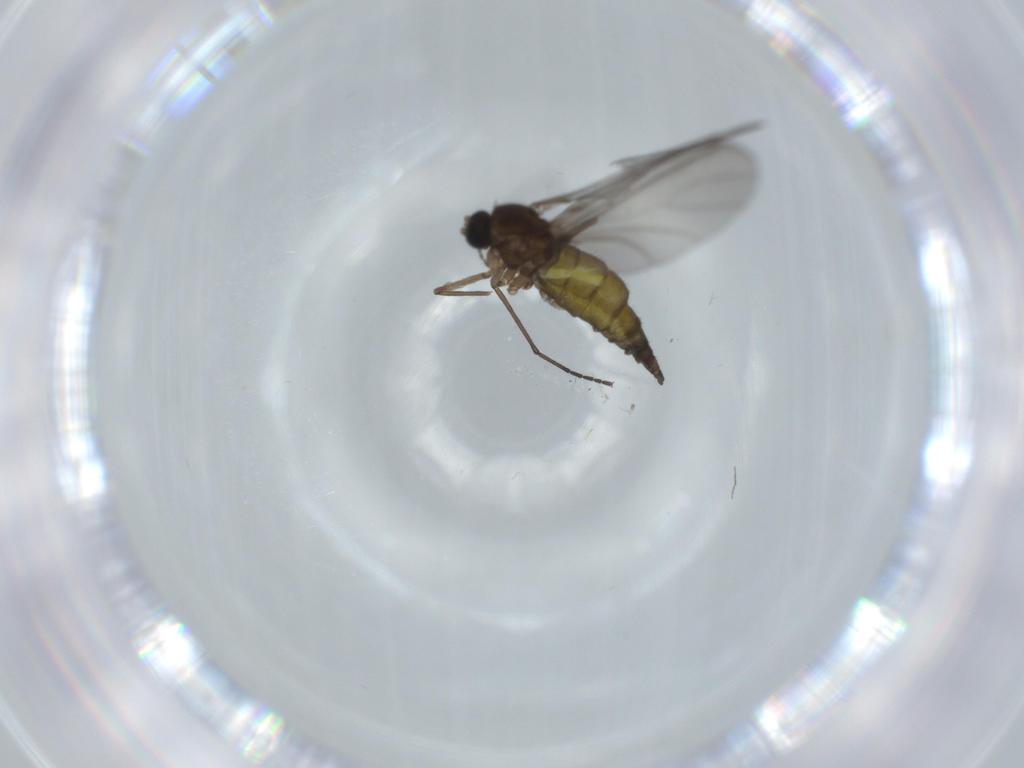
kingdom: Animalia
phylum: Arthropoda
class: Insecta
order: Diptera
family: Sciaridae
